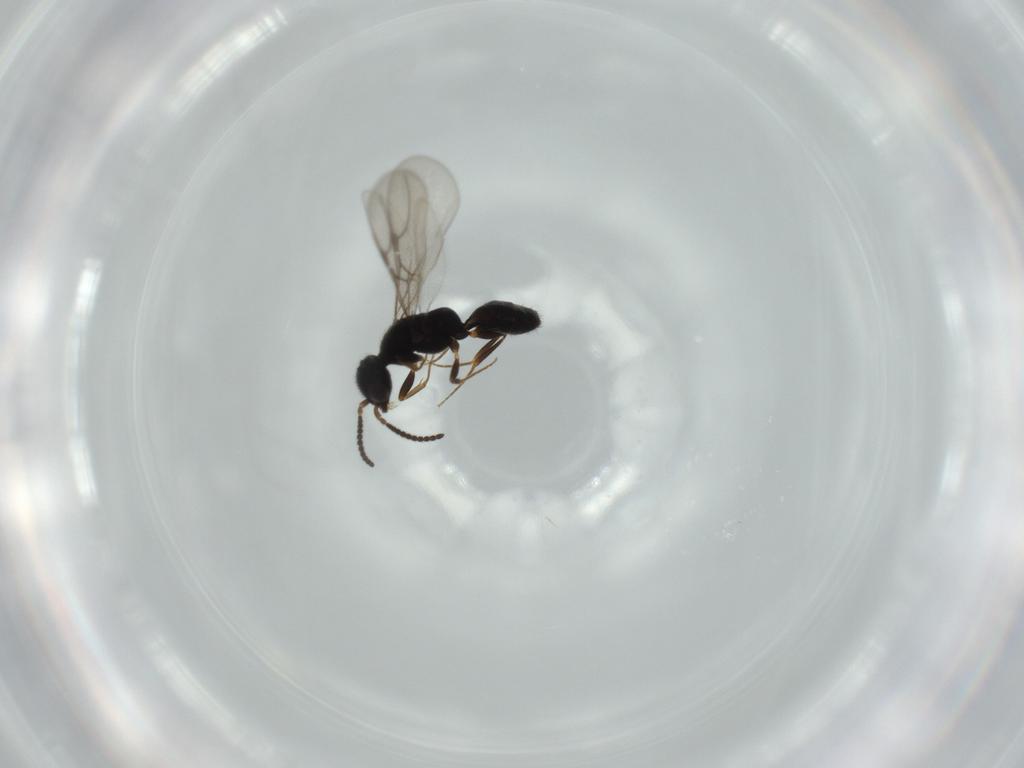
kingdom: Animalia
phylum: Arthropoda
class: Insecta
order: Hymenoptera
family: Bethylidae
